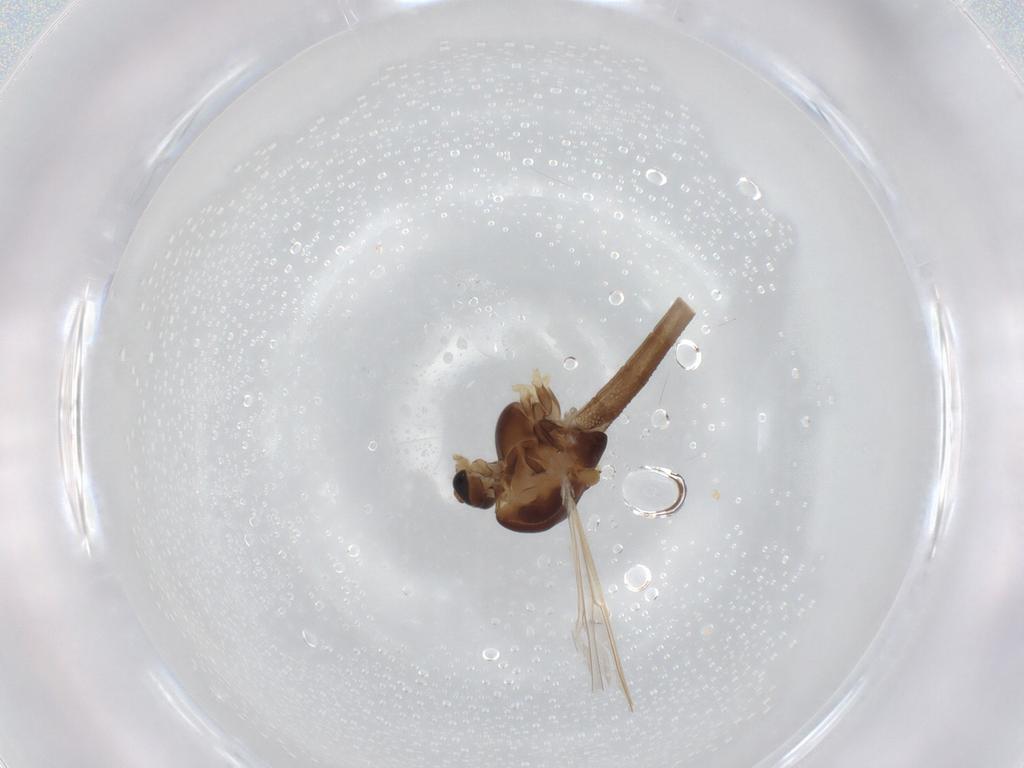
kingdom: Animalia
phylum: Arthropoda
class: Insecta
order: Diptera
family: Chironomidae
